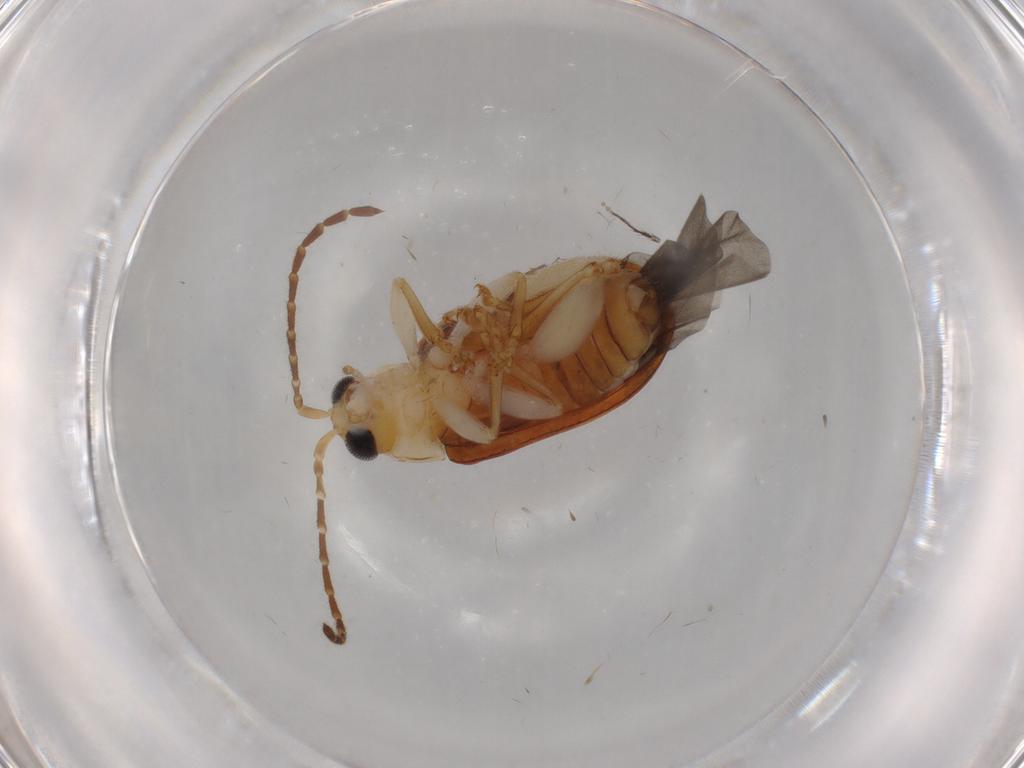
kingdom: Animalia
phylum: Arthropoda
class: Insecta
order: Coleoptera
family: Chrysomelidae
